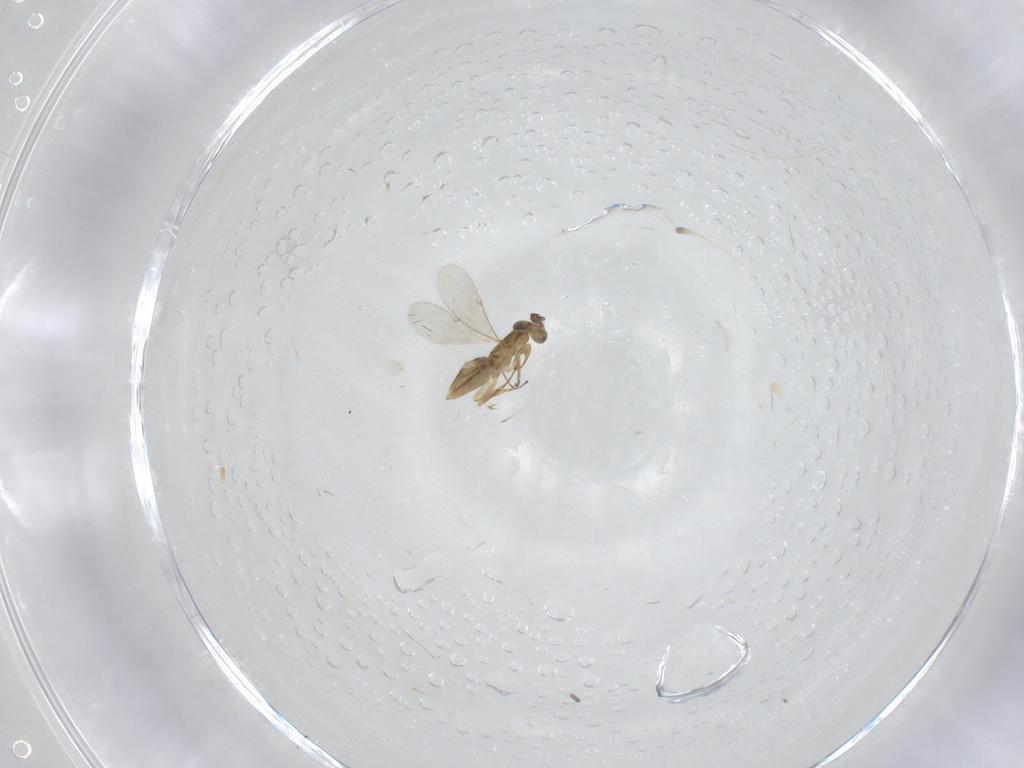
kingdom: Animalia
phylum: Arthropoda
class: Insecta
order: Hymenoptera
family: Encyrtidae
